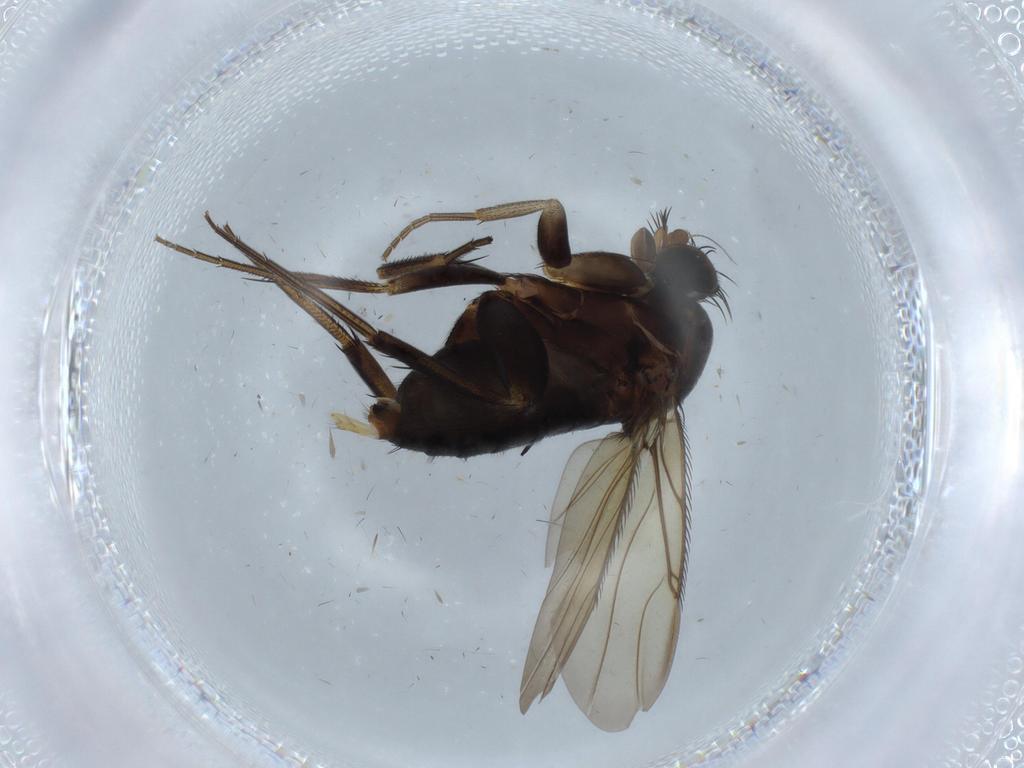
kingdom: Animalia
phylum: Arthropoda
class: Insecta
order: Diptera
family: Phoridae
